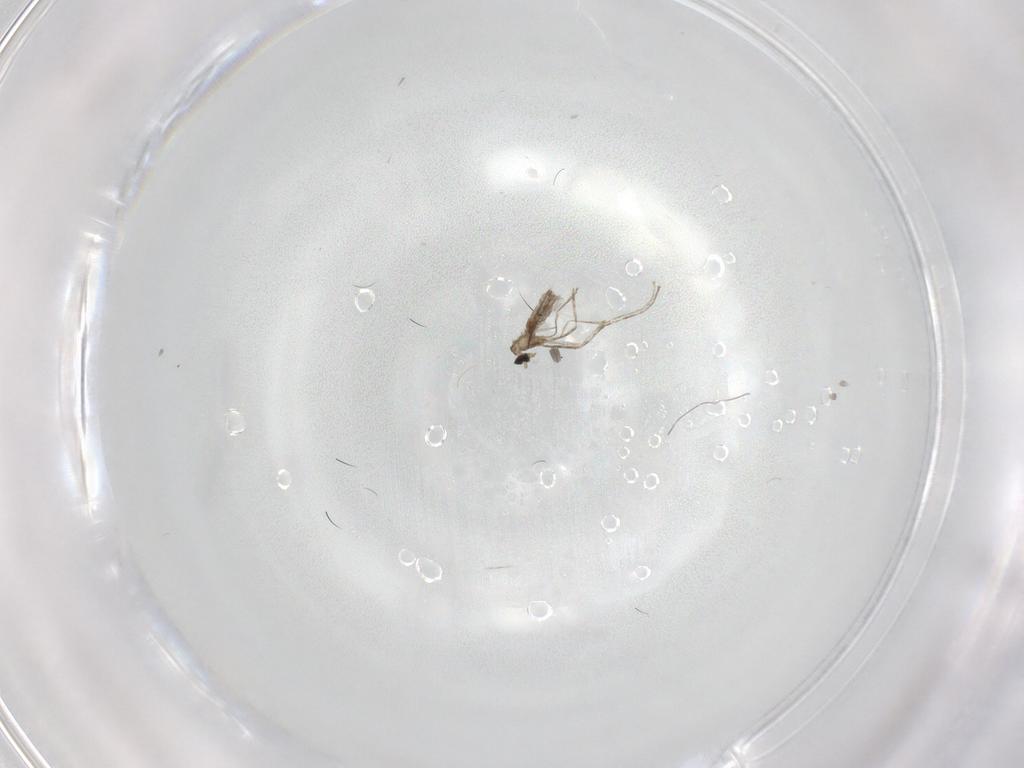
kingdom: Animalia
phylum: Arthropoda
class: Insecta
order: Diptera
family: Cecidomyiidae
